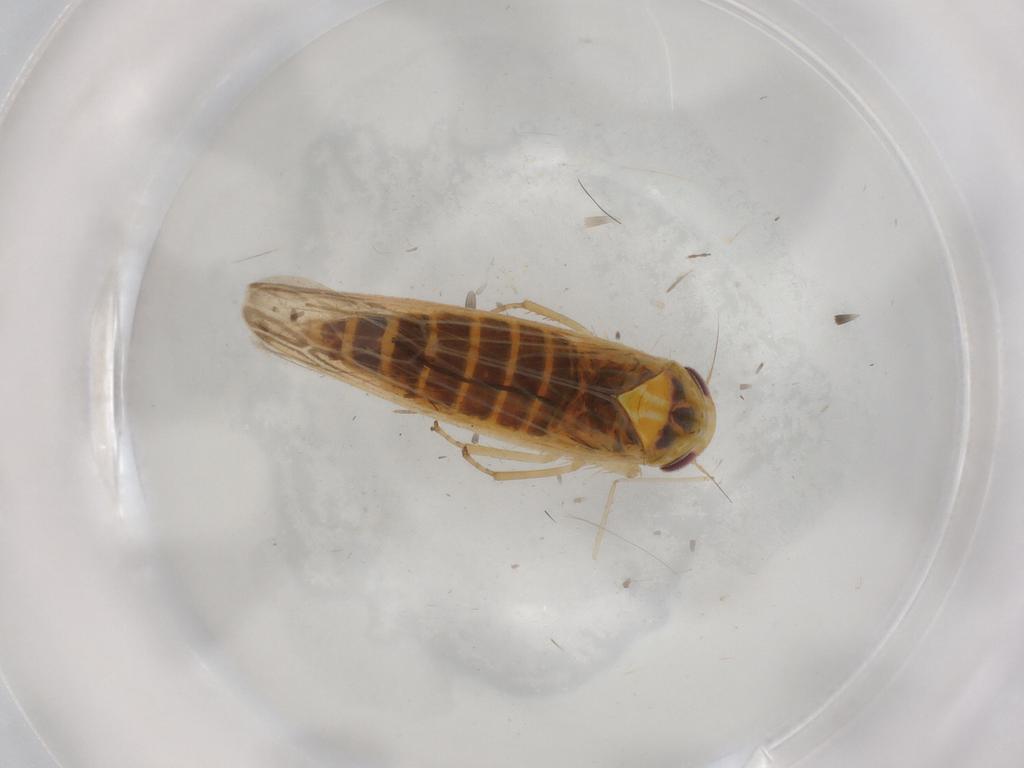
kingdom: Animalia
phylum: Arthropoda
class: Insecta
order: Hemiptera
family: Cicadellidae
